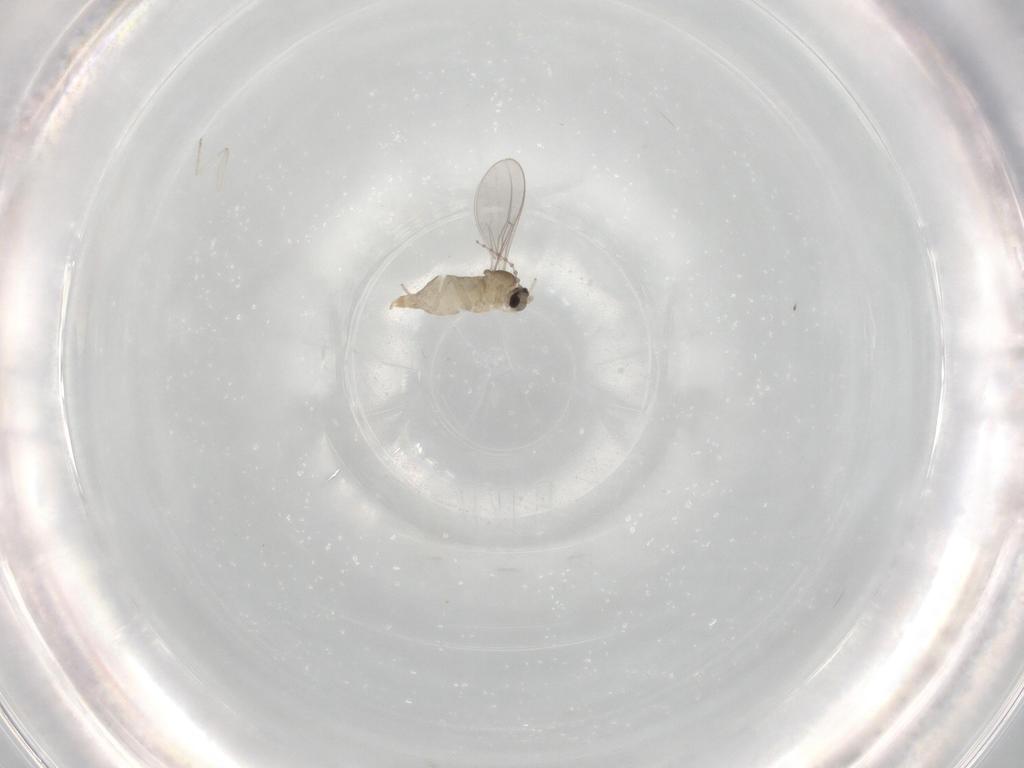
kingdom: Animalia
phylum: Arthropoda
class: Insecta
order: Diptera
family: Cecidomyiidae
